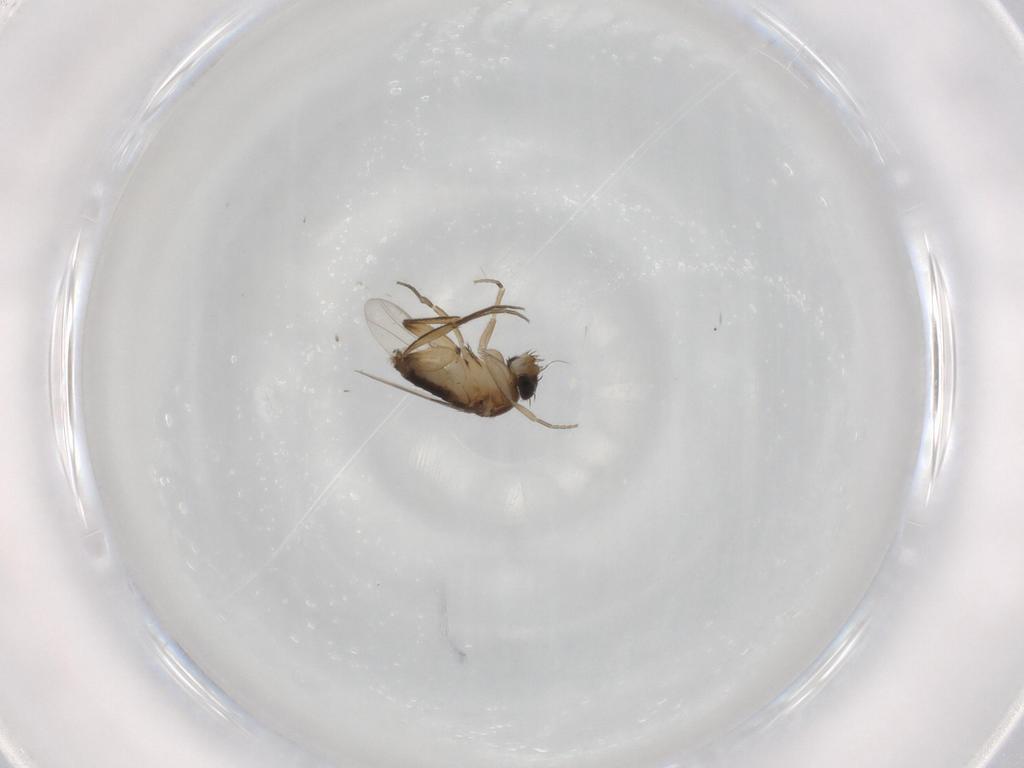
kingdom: Animalia
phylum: Arthropoda
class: Insecta
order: Diptera
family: Phoridae
